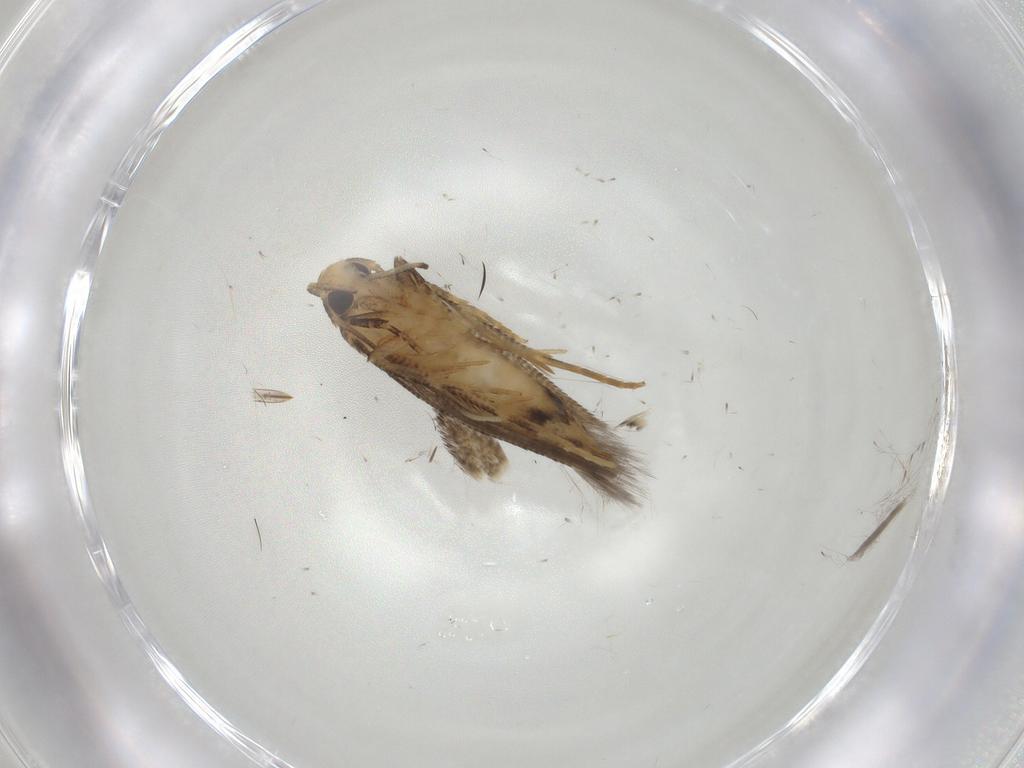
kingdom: Animalia
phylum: Arthropoda
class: Insecta
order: Lepidoptera
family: Cosmopterigidae
